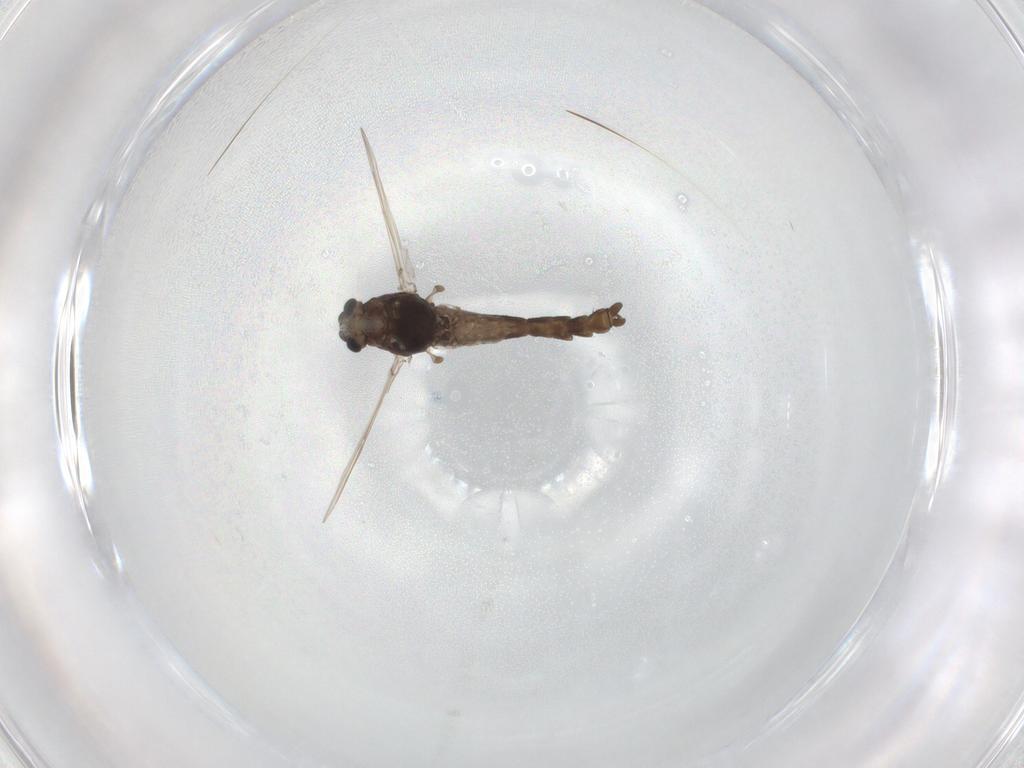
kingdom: Animalia
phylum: Arthropoda
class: Insecta
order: Diptera
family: Chironomidae
